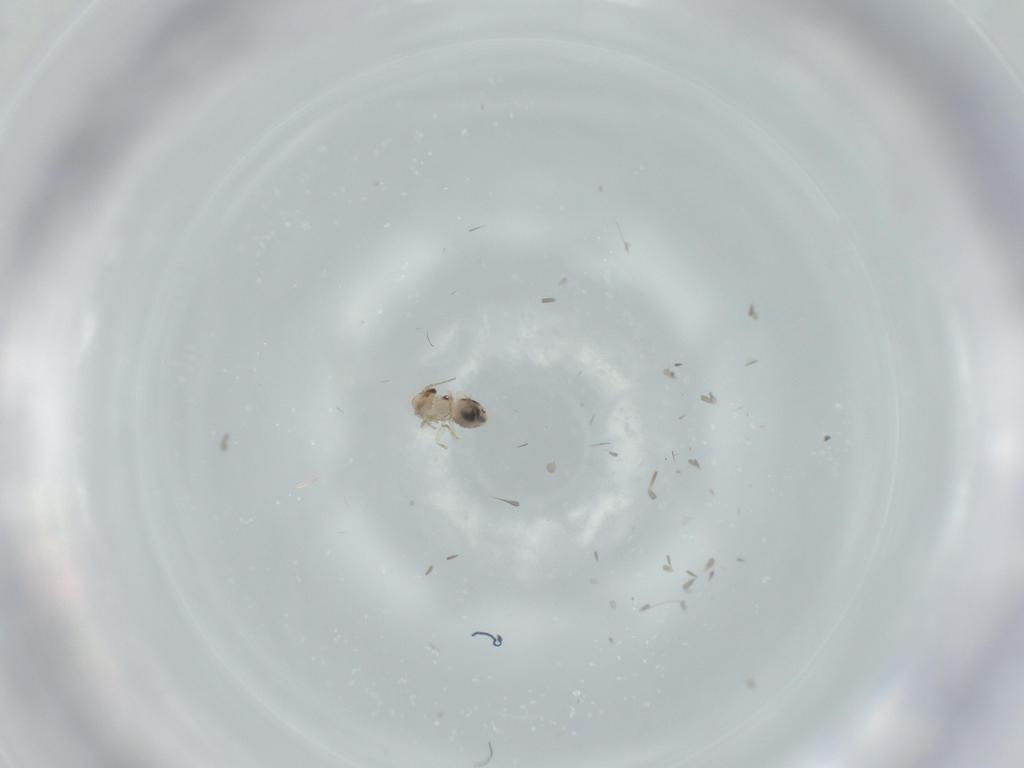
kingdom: Animalia
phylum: Arthropoda
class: Insecta
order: Psocodea
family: Psoquillidae
